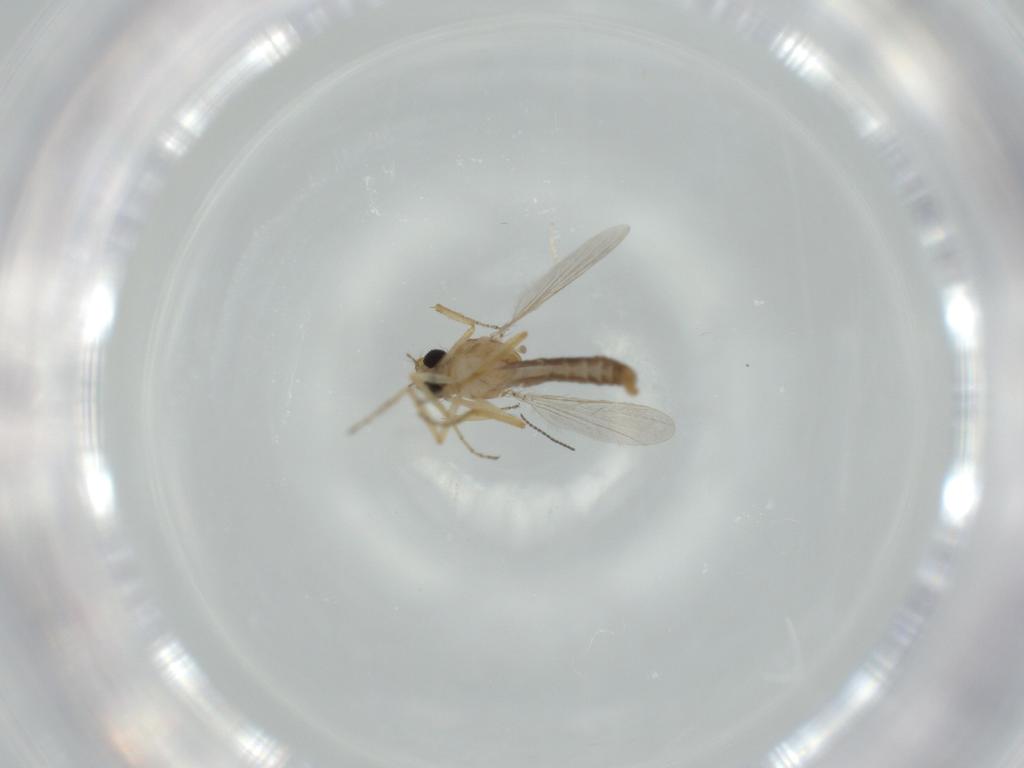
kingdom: Animalia
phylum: Arthropoda
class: Insecta
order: Diptera
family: Ceratopogonidae
